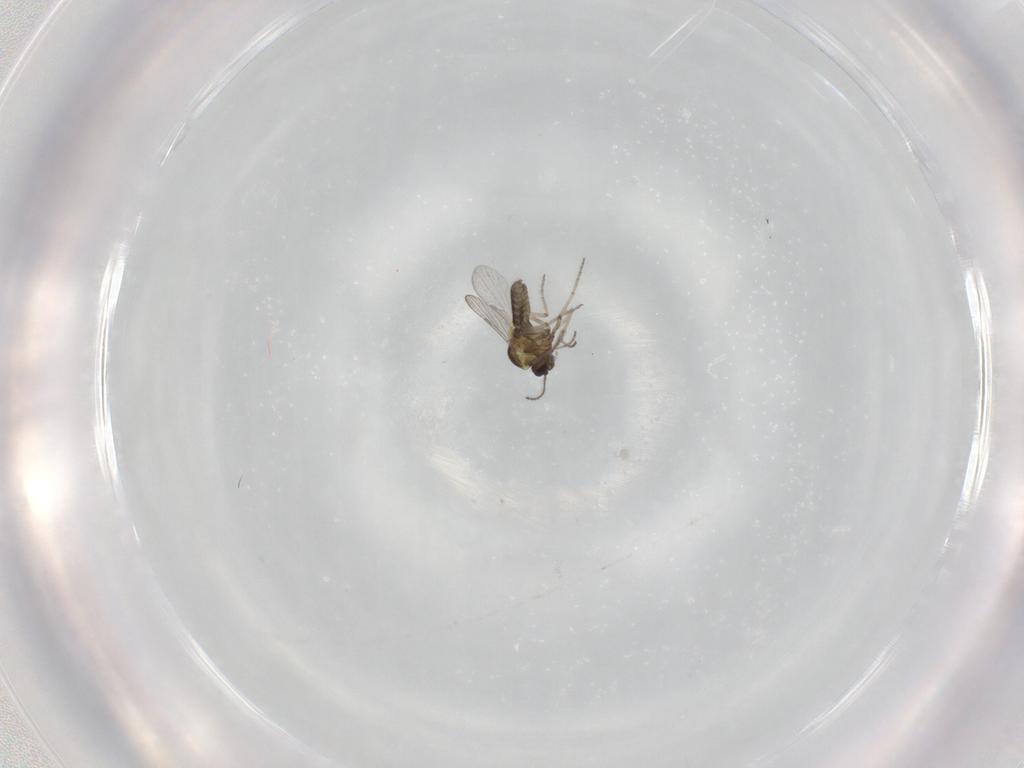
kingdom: Animalia
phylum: Arthropoda
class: Insecta
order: Diptera
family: Ceratopogonidae
